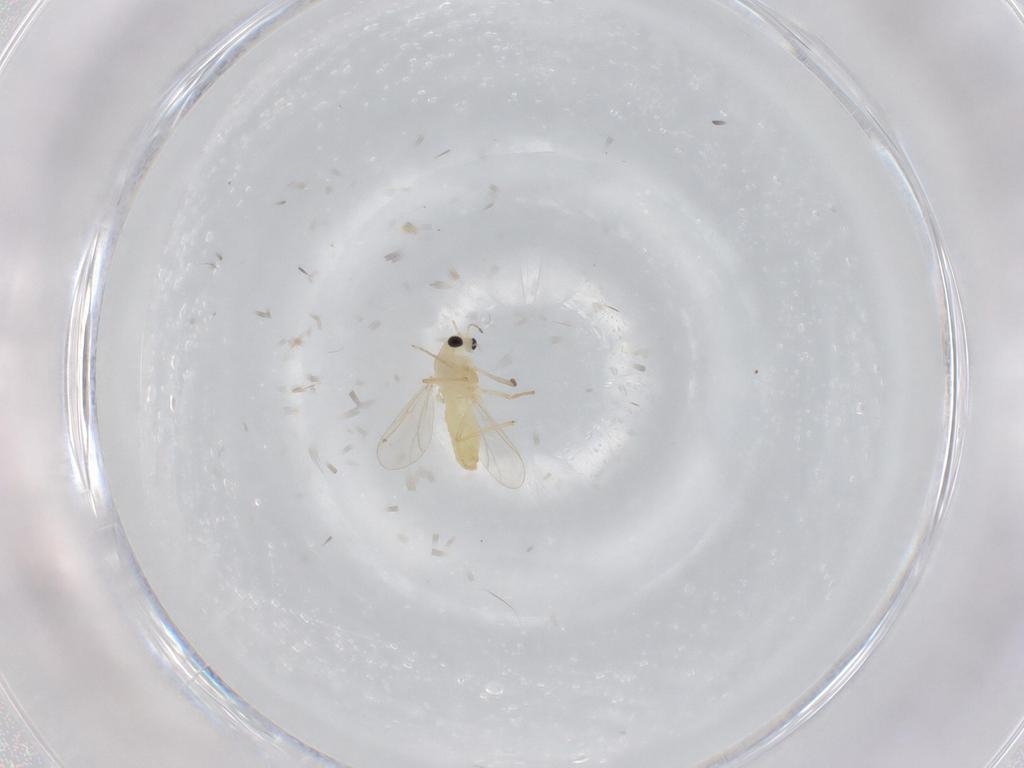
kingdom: Animalia
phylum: Arthropoda
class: Insecta
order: Diptera
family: Chironomidae
